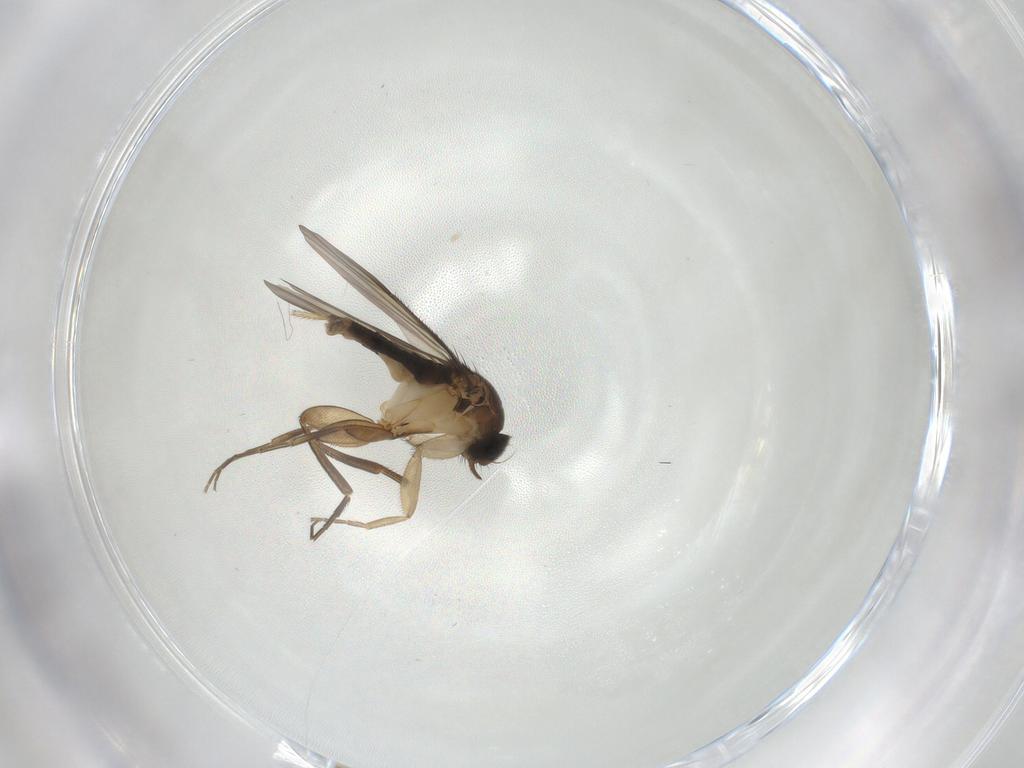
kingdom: Animalia
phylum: Arthropoda
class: Insecta
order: Diptera
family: Phoridae
